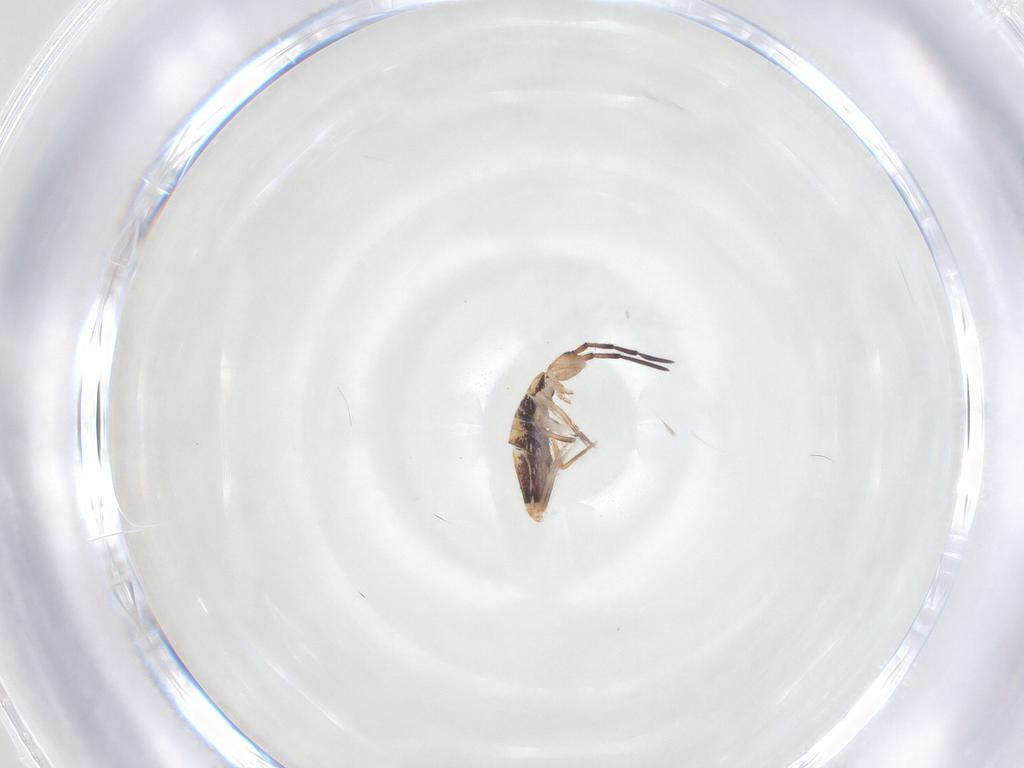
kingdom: Animalia
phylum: Arthropoda
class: Collembola
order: Entomobryomorpha
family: Entomobryidae
